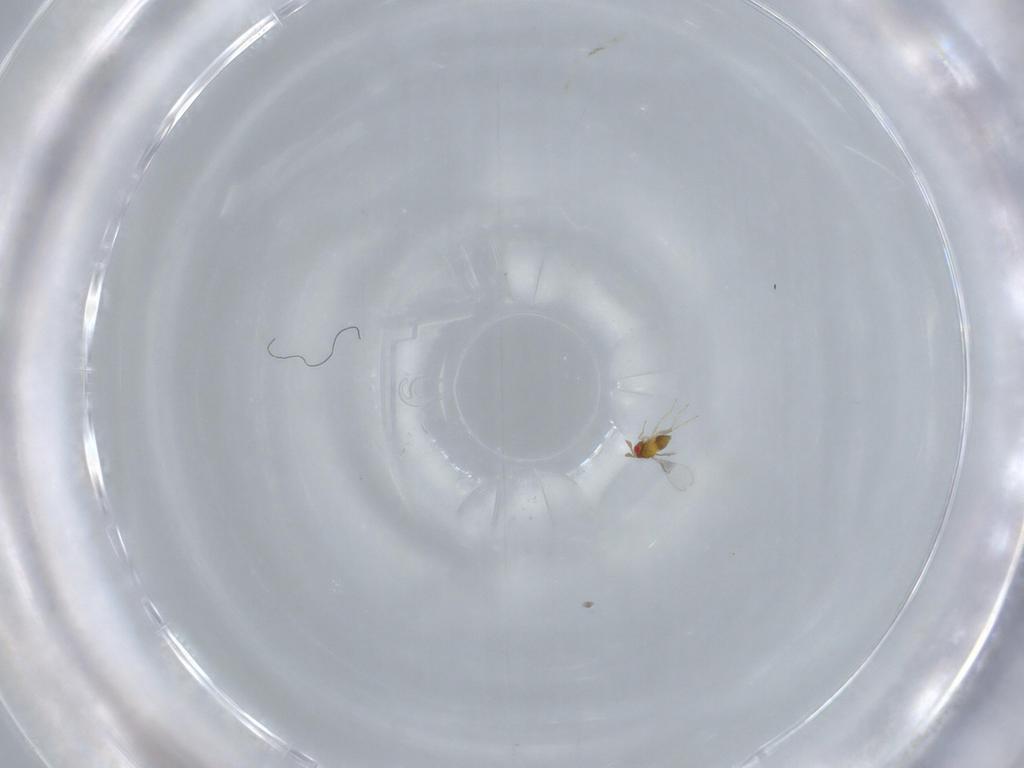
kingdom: Animalia
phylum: Arthropoda
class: Insecta
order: Hymenoptera
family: Trichogrammatidae
